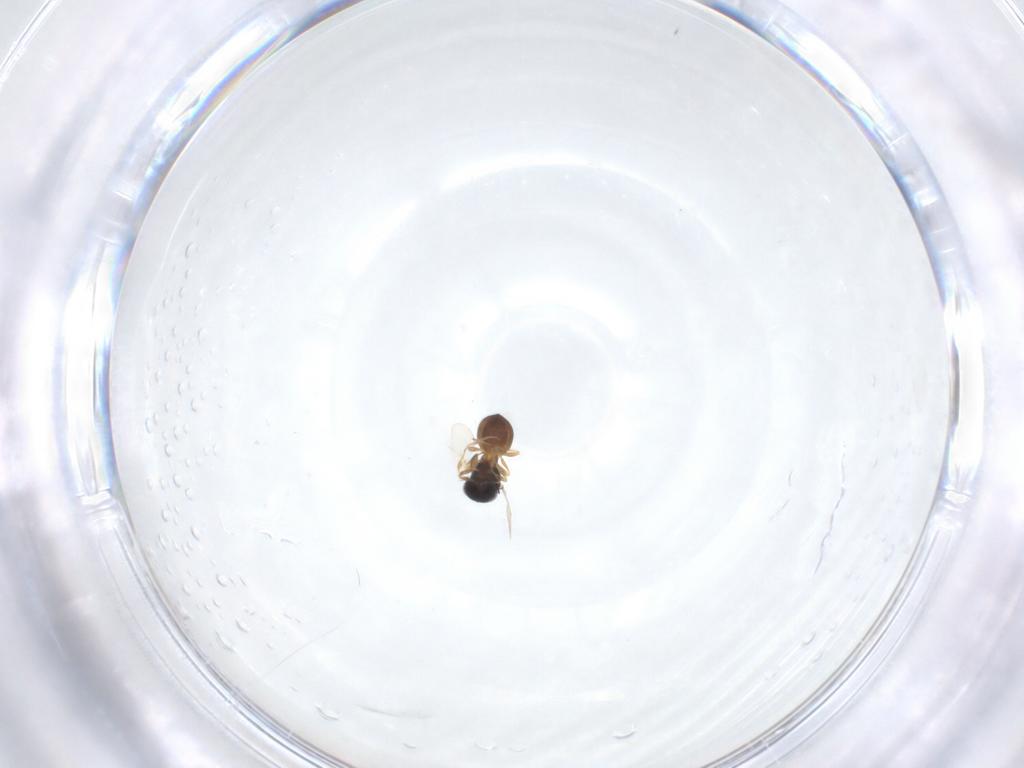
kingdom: Animalia
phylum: Arthropoda
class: Insecta
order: Hymenoptera
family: Scelionidae
